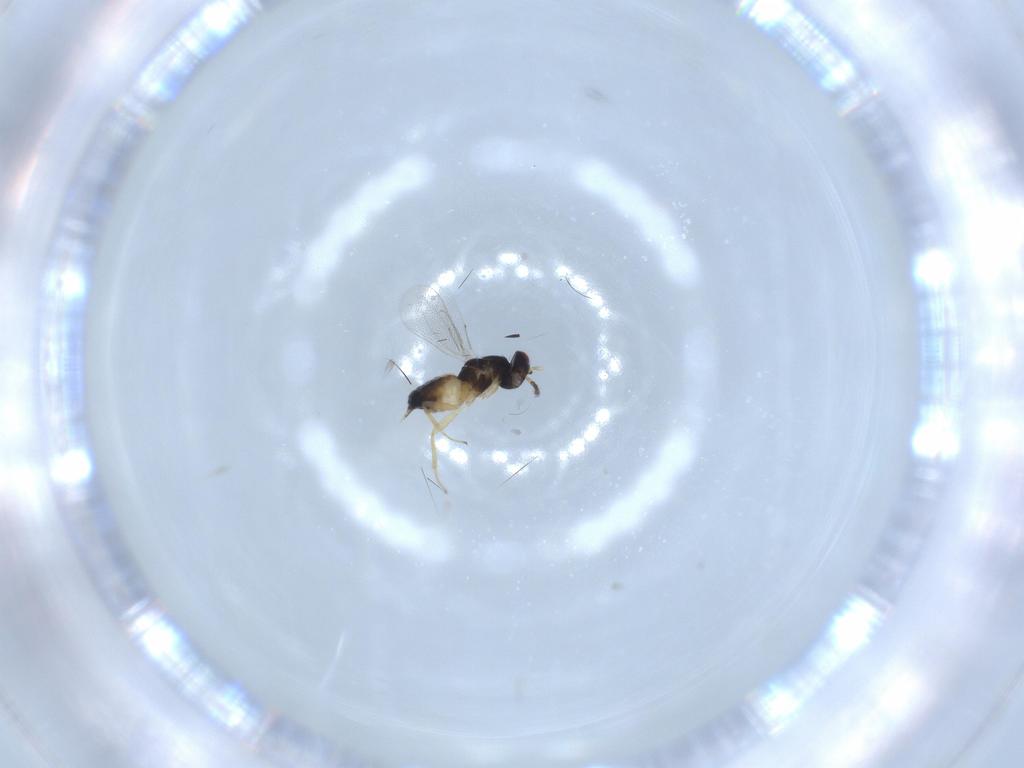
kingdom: Animalia
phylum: Arthropoda
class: Insecta
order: Hymenoptera
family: Eulophidae
